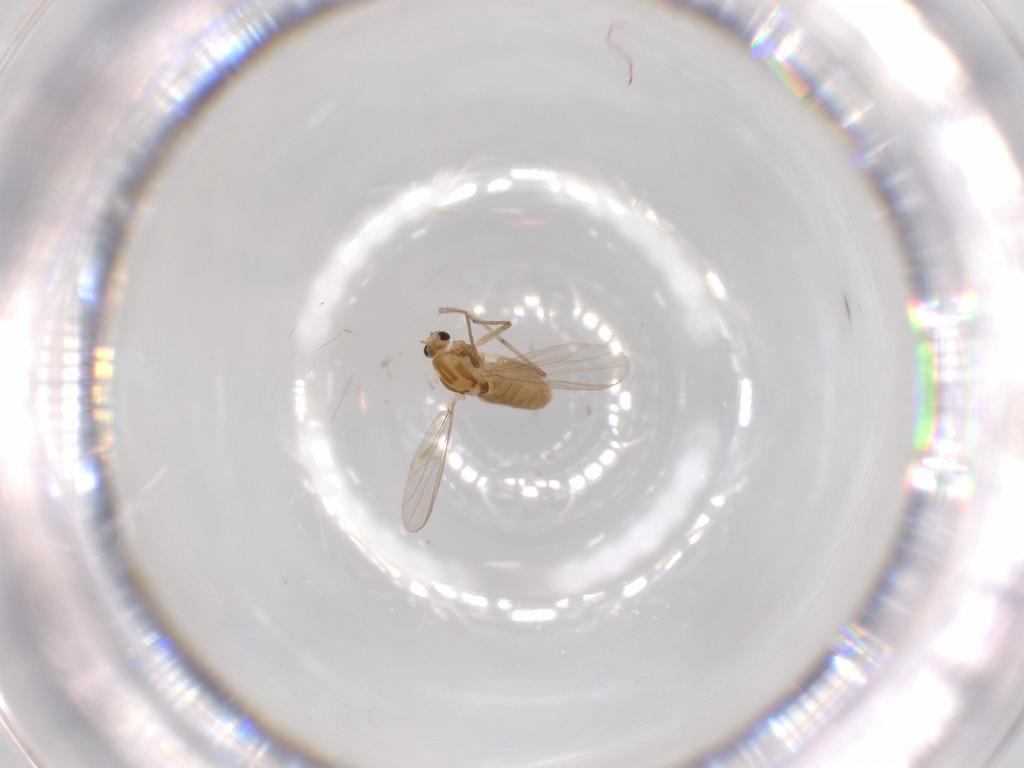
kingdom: Animalia
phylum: Arthropoda
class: Insecta
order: Diptera
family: Chironomidae
